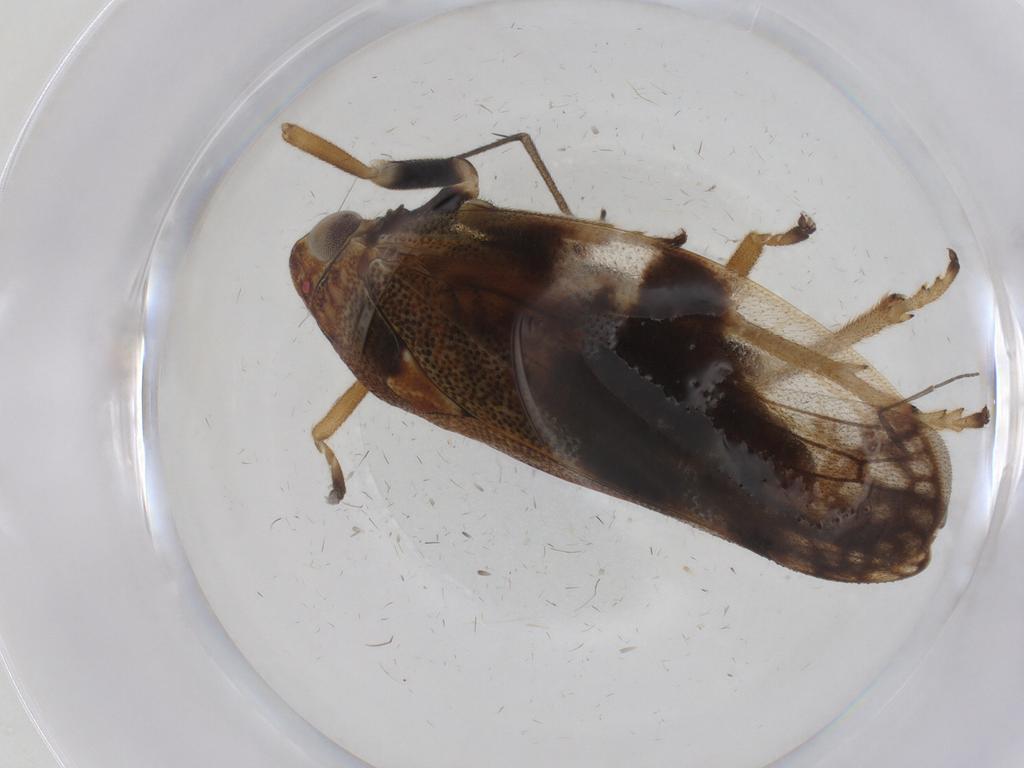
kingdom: Animalia
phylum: Arthropoda
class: Insecta
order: Hemiptera
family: Aphrophoridae
